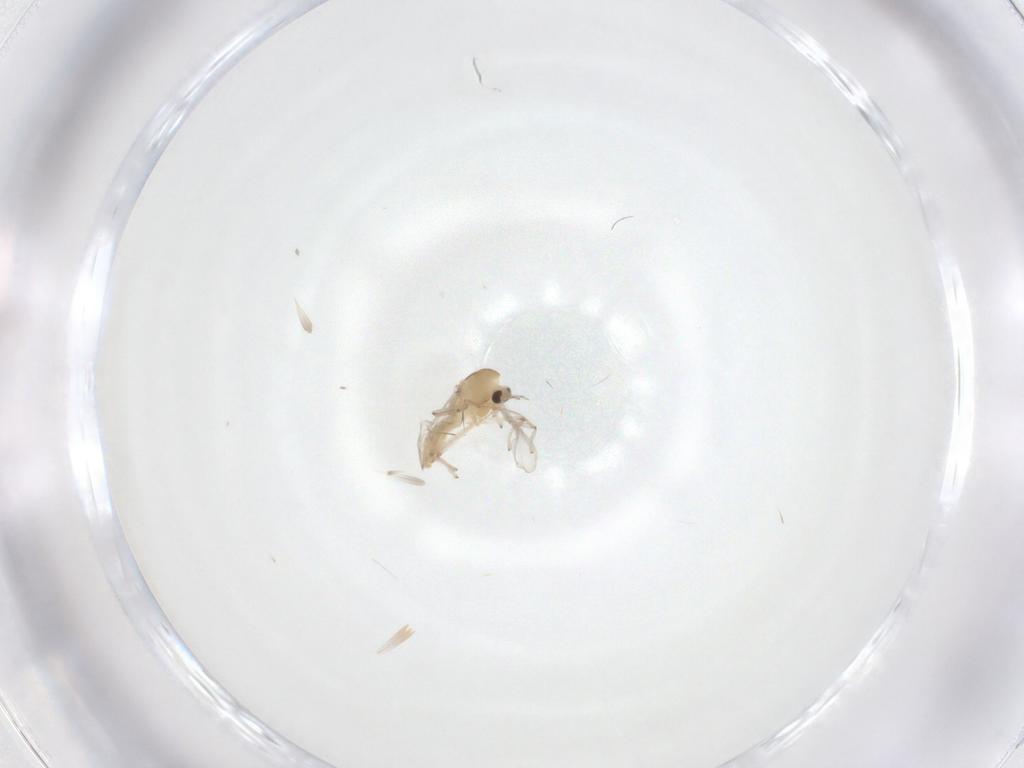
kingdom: Animalia
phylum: Arthropoda
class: Insecta
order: Diptera
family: Chironomidae
